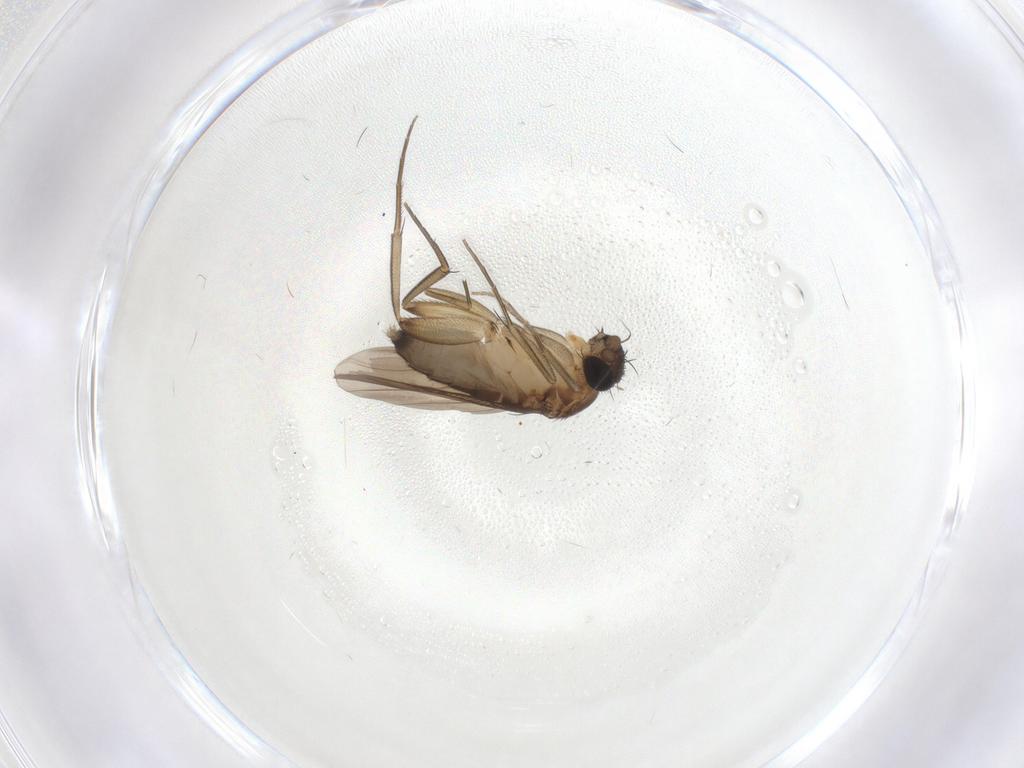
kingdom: Animalia
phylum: Arthropoda
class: Insecta
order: Diptera
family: Phoridae
